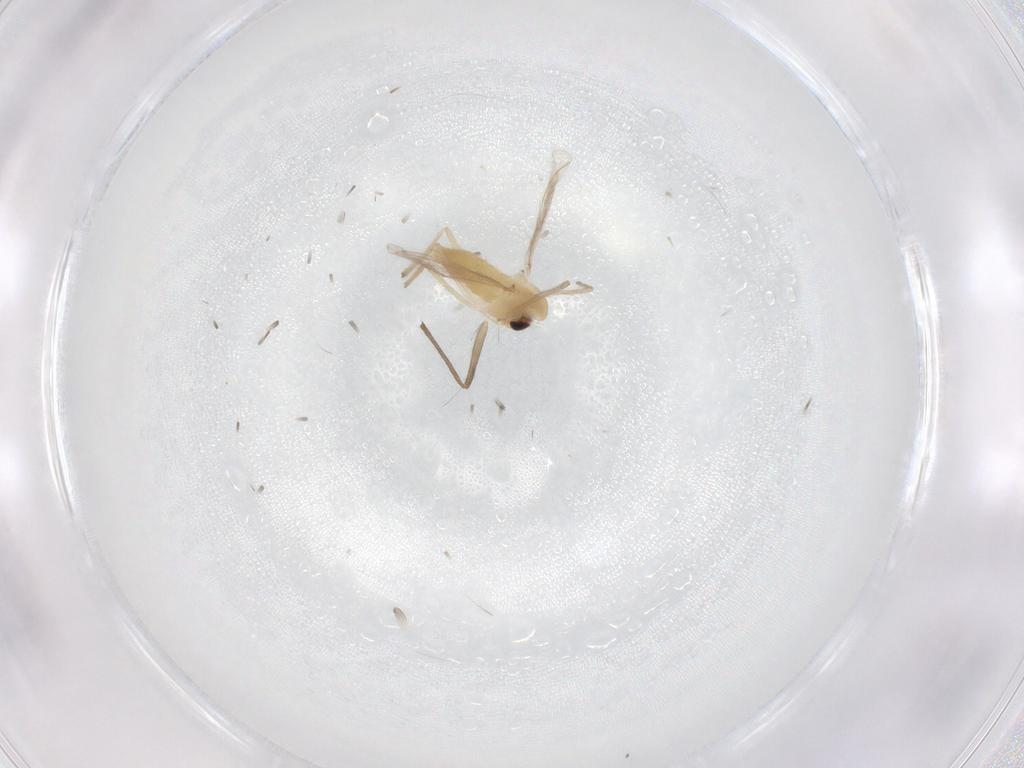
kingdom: Animalia
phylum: Arthropoda
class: Insecta
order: Diptera
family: Chironomidae
